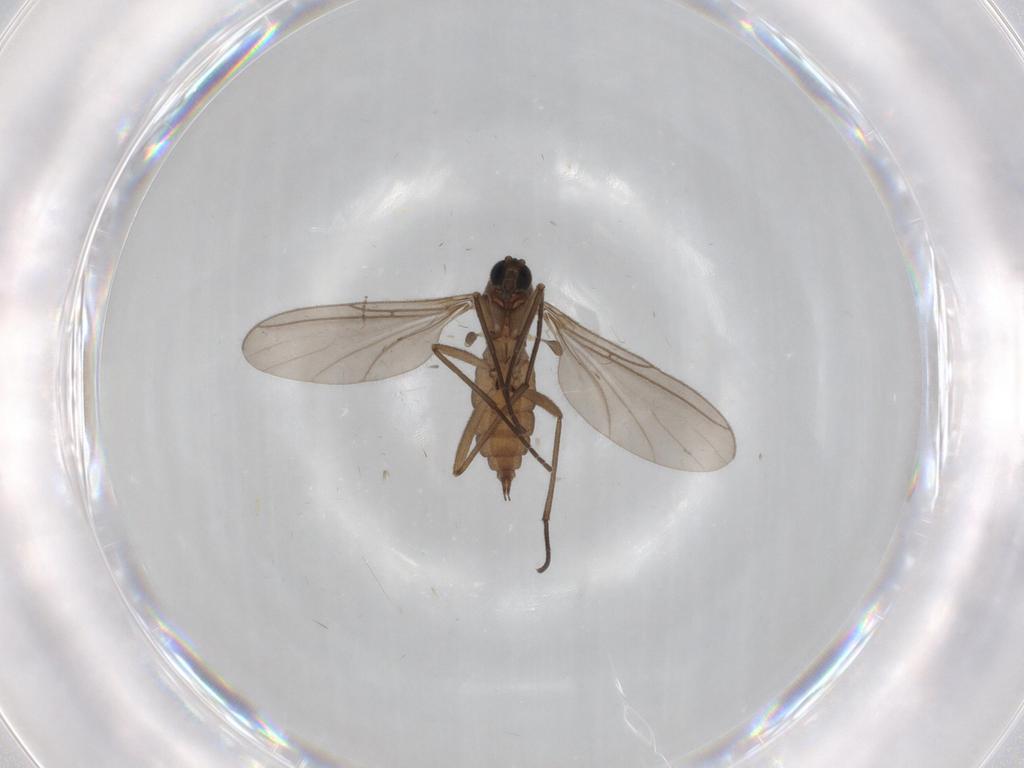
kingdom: Animalia
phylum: Arthropoda
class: Insecta
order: Diptera
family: Sciaridae
